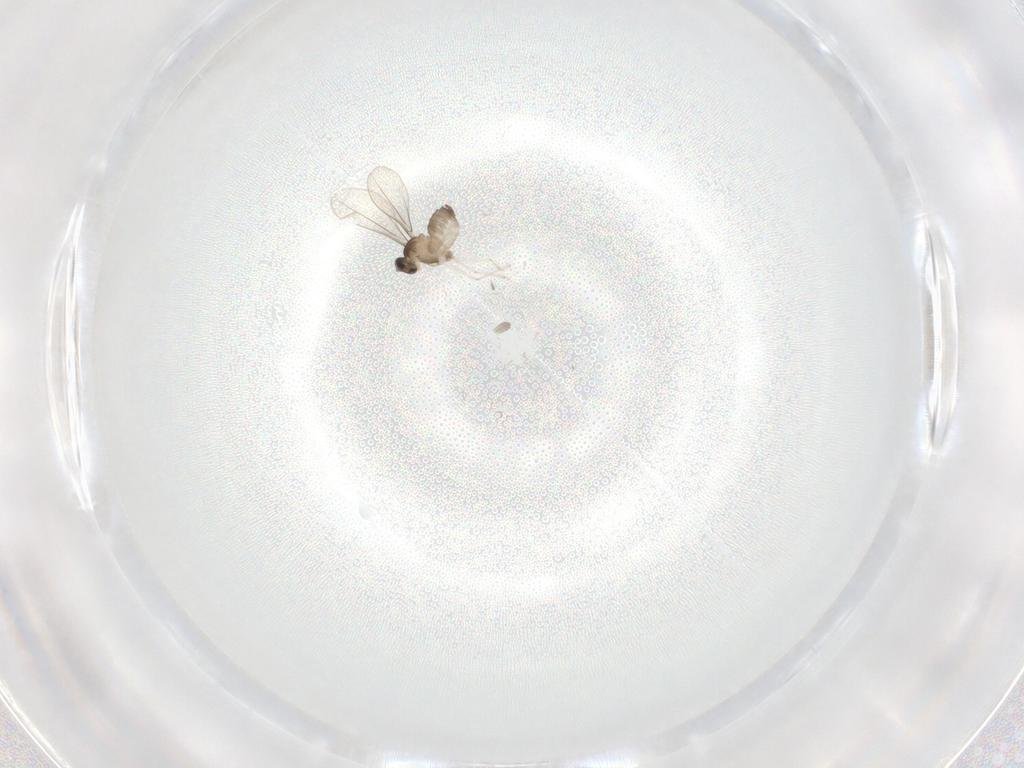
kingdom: Animalia
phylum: Arthropoda
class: Insecta
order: Diptera
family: Cecidomyiidae
